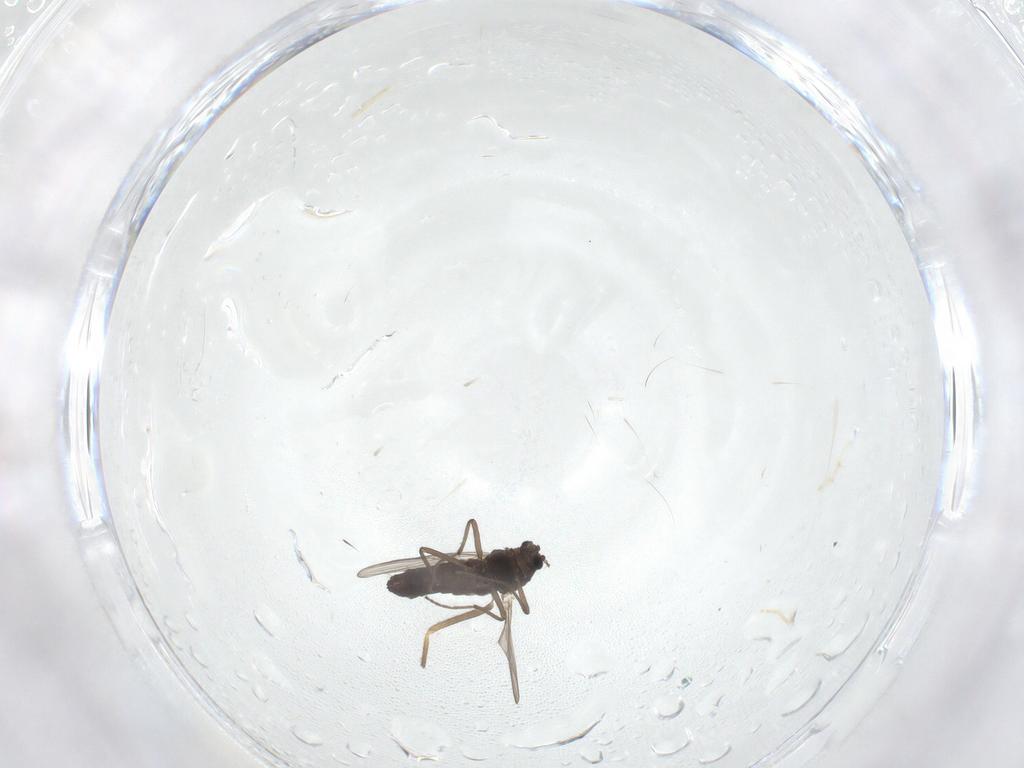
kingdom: Animalia
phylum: Arthropoda
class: Insecta
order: Diptera
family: Chironomidae
